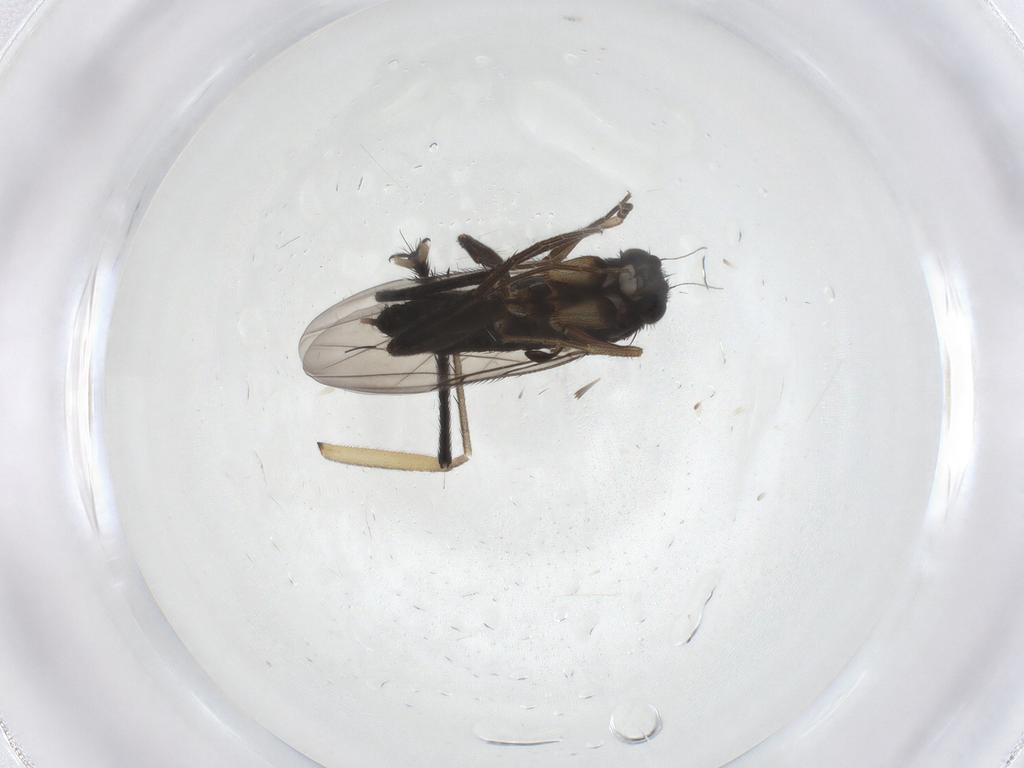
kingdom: Animalia
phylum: Arthropoda
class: Insecta
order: Diptera
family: Phoridae
